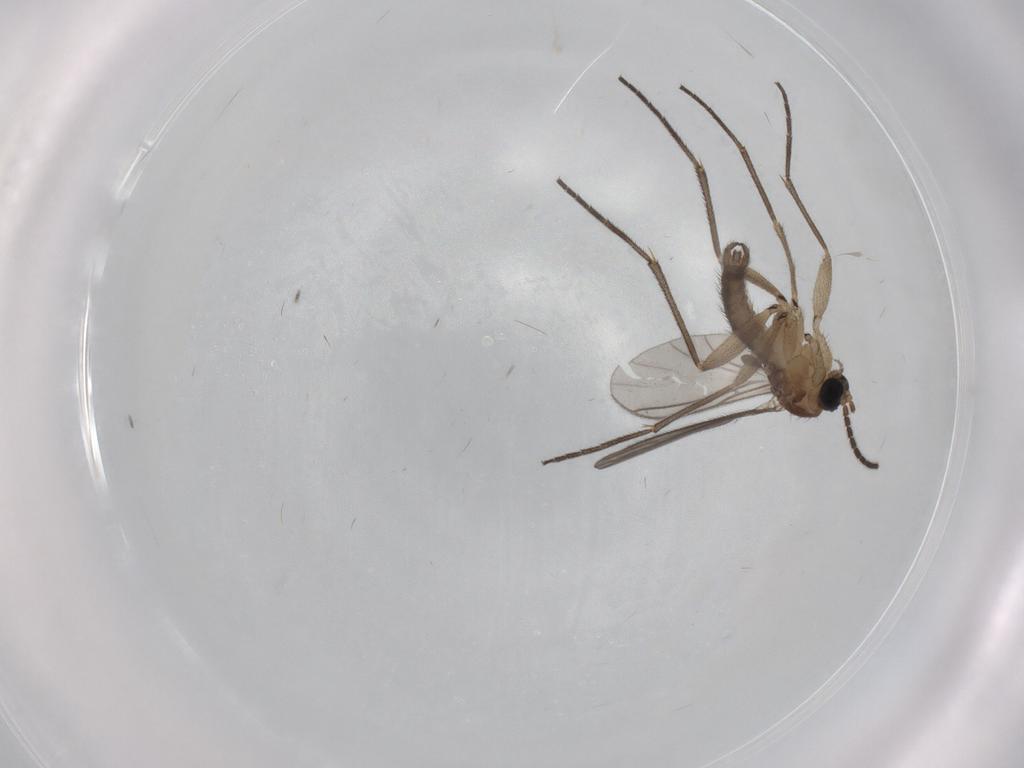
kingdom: Animalia
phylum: Arthropoda
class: Insecta
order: Diptera
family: Sciaridae
